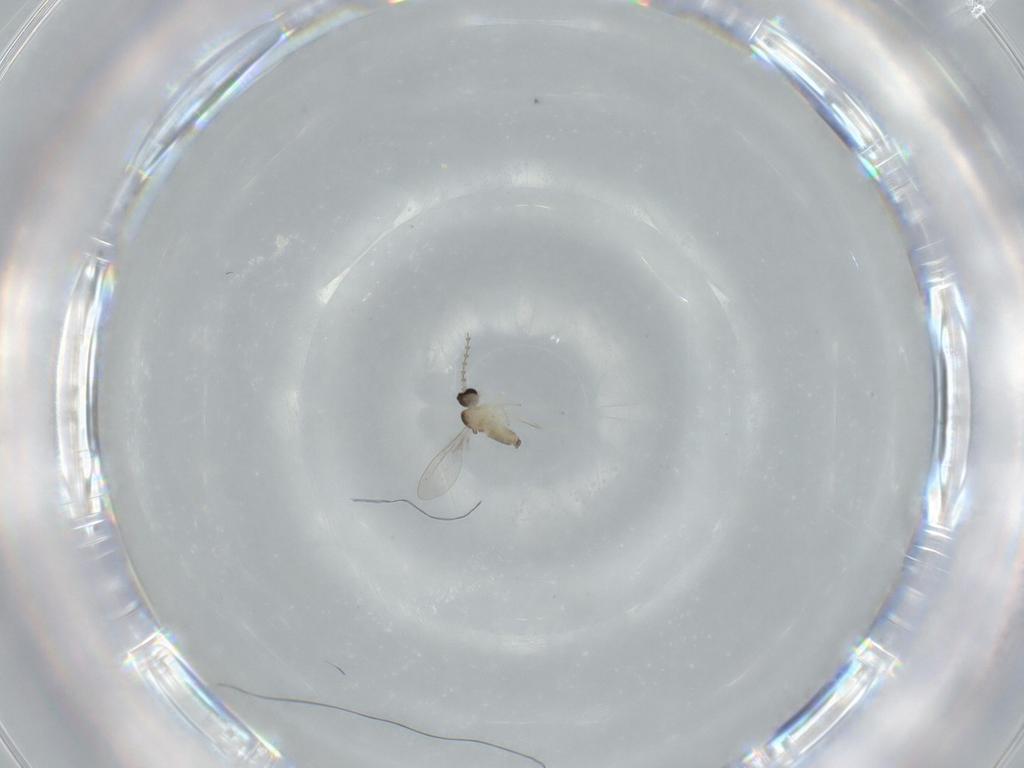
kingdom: Animalia
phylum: Arthropoda
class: Insecta
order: Diptera
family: Cecidomyiidae
